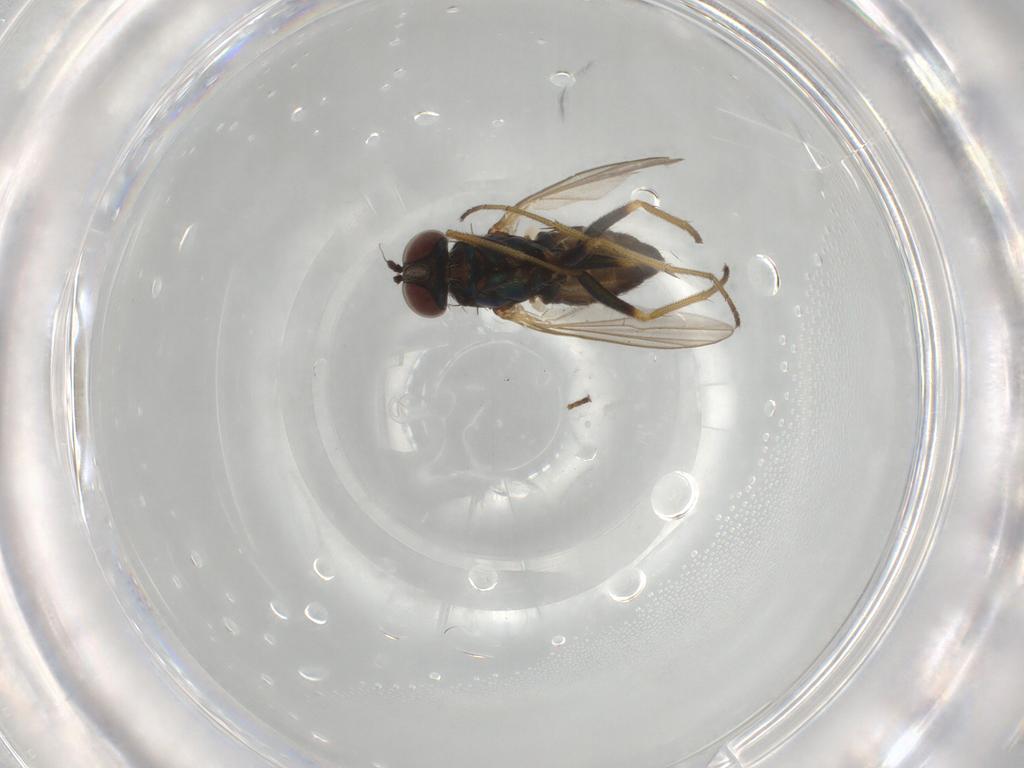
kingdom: Animalia
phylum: Arthropoda
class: Insecta
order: Diptera
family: Dolichopodidae
